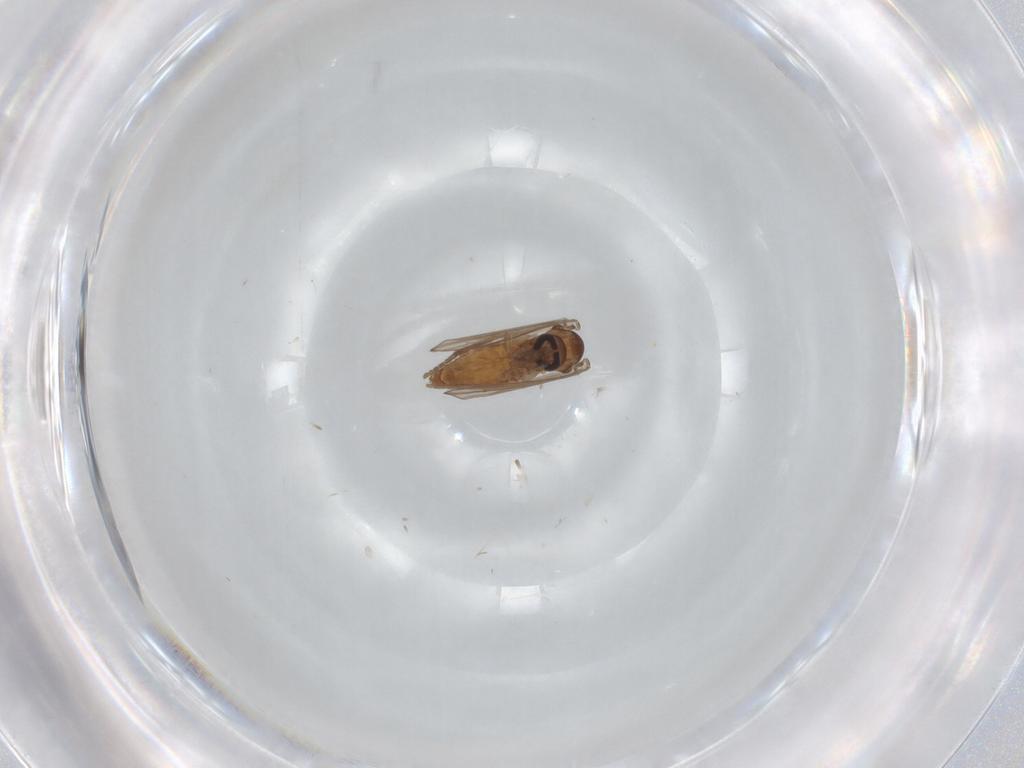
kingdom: Animalia
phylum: Arthropoda
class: Insecta
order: Diptera
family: Psychodidae
